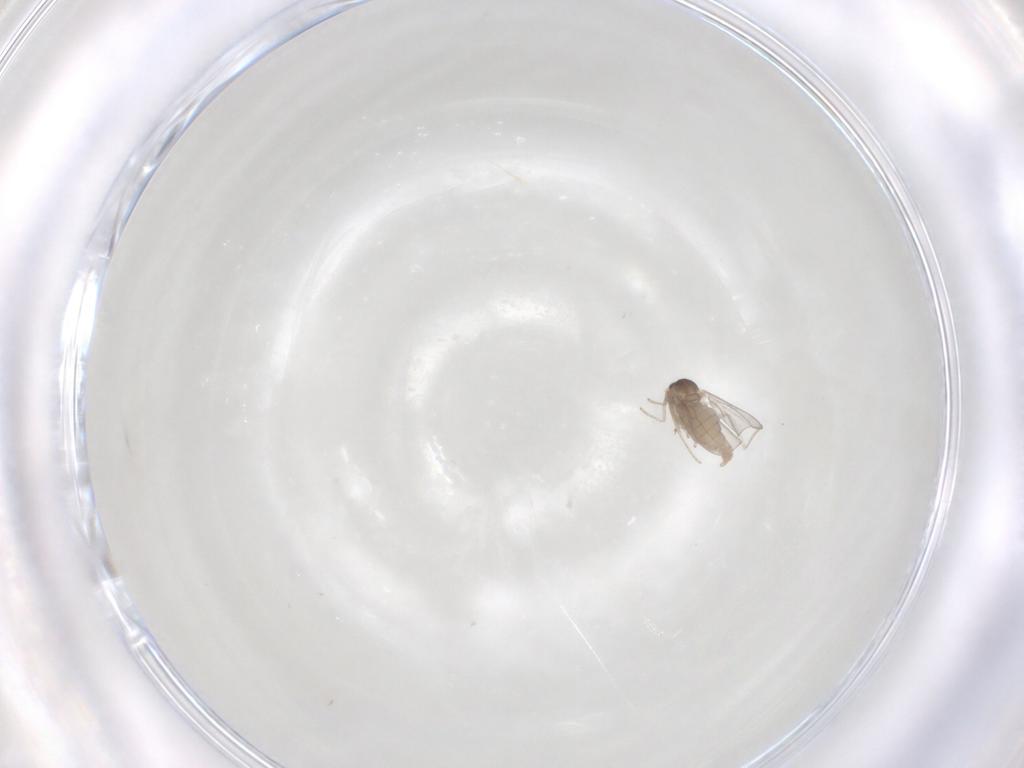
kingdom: Animalia
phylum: Arthropoda
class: Insecta
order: Diptera
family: Cecidomyiidae
